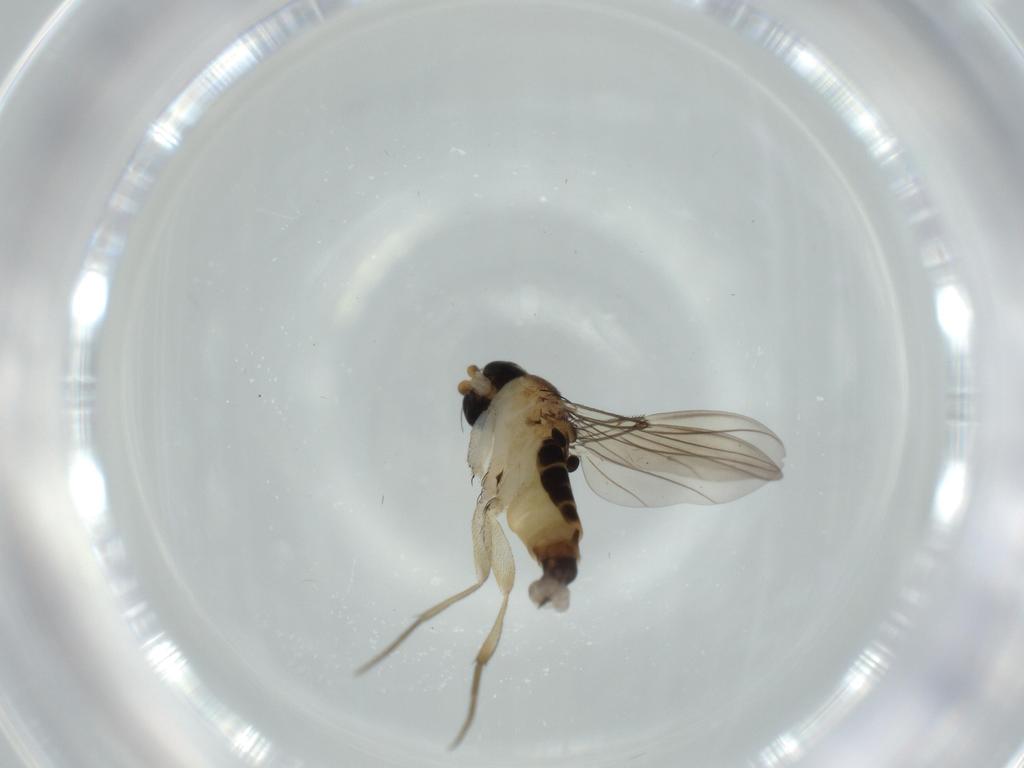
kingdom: Animalia
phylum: Arthropoda
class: Insecta
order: Diptera
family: Phoridae
